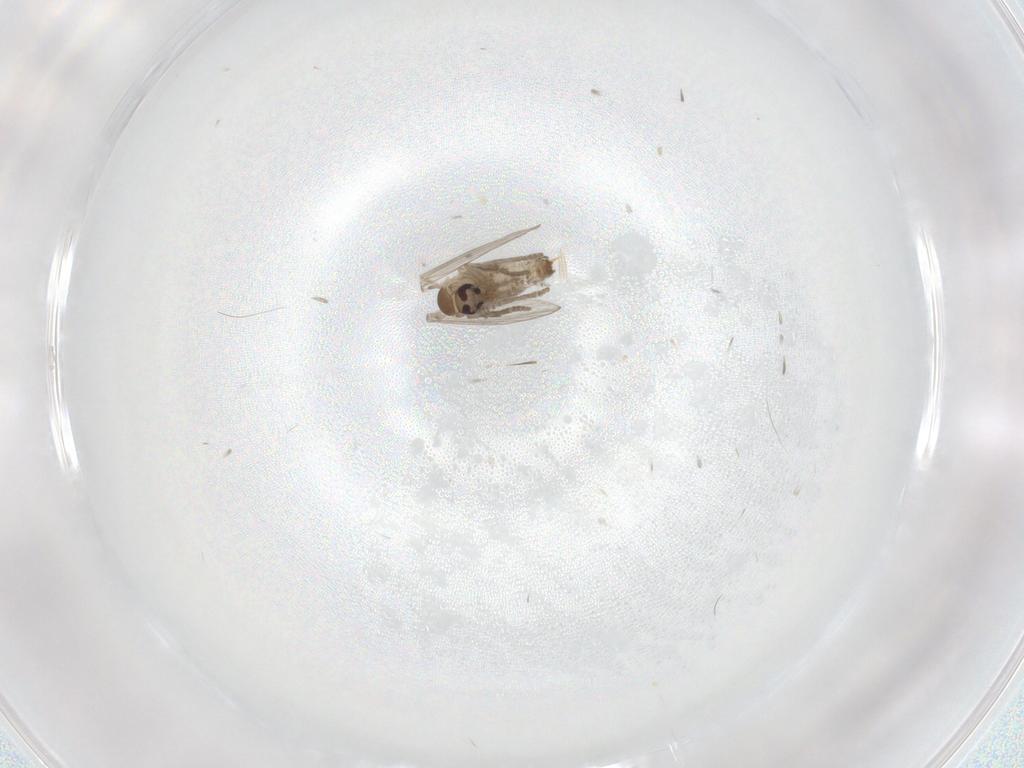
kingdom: Animalia
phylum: Arthropoda
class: Insecta
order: Diptera
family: Psychodidae
